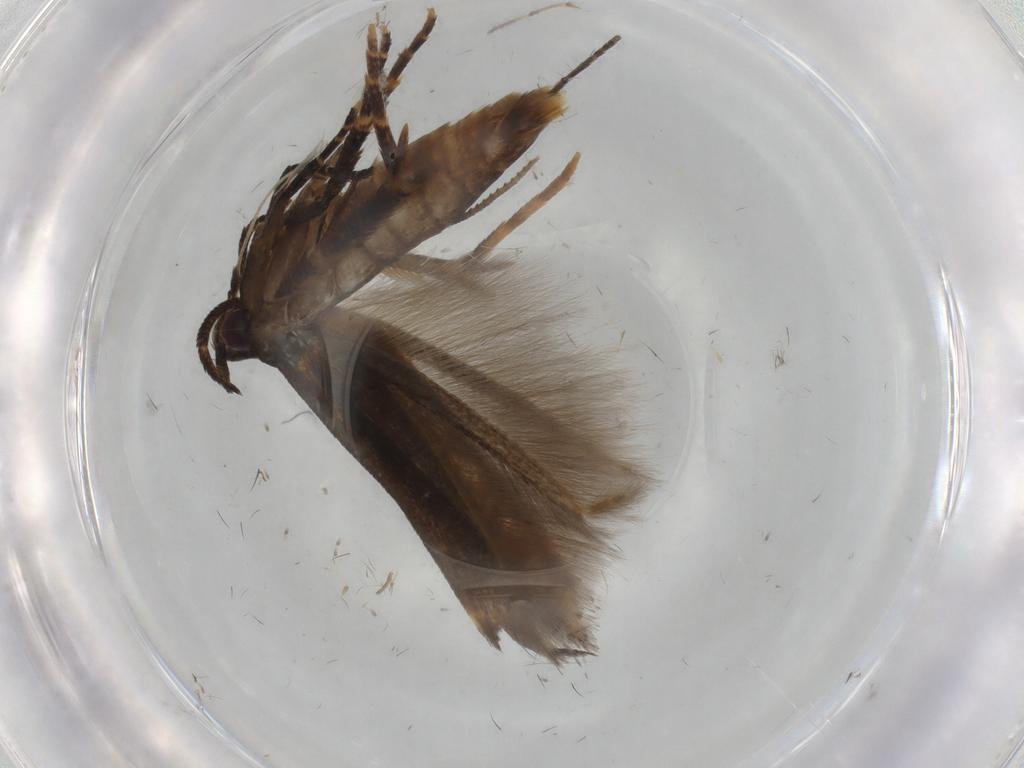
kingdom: Animalia
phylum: Arthropoda
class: Insecta
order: Lepidoptera
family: Cosmopterigidae
